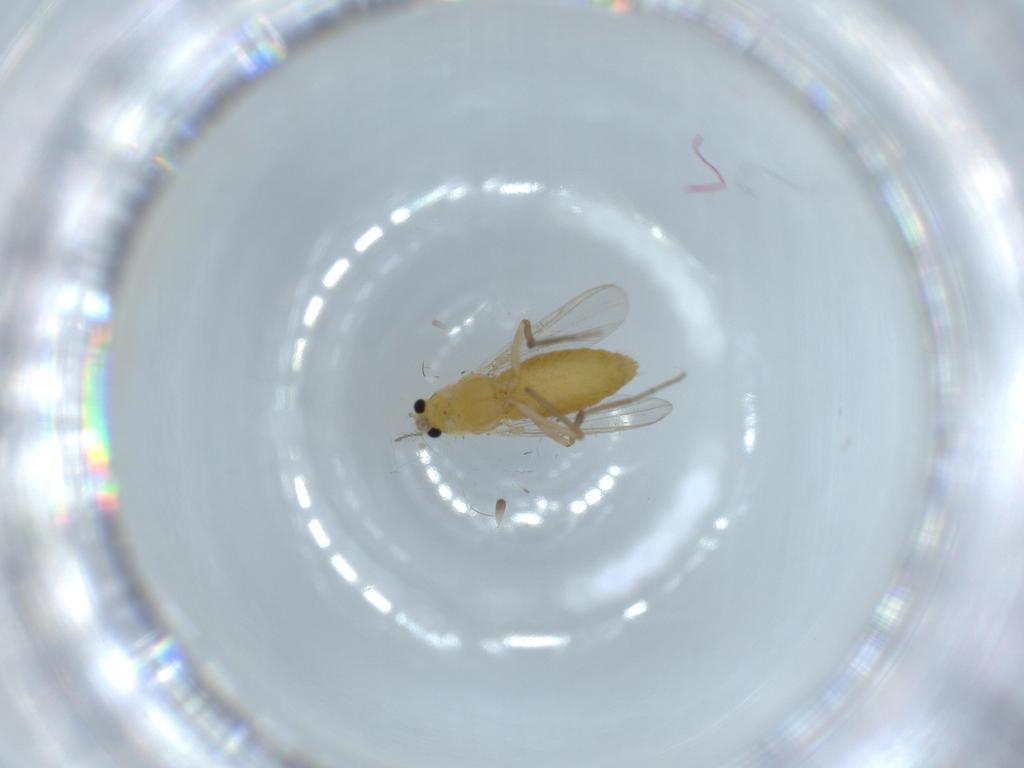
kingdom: Animalia
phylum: Arthropoda
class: Insecta
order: Diptera
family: Chironomidae
